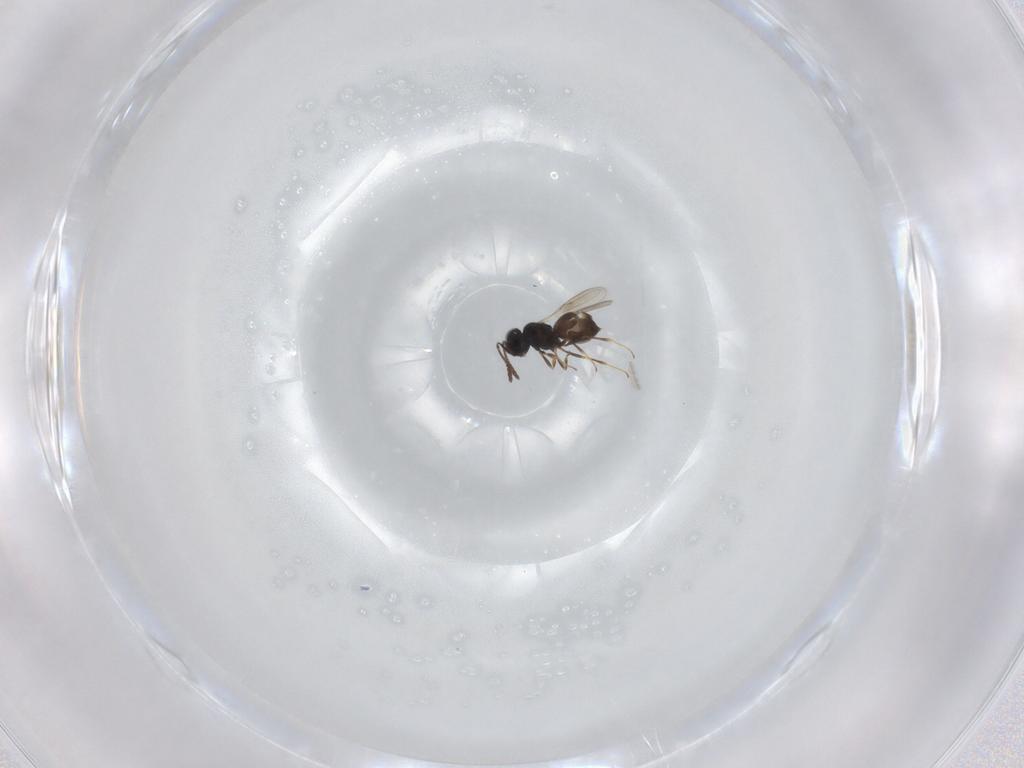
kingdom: Animalia
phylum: Arthropoda
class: Insecta
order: Hymenoptera
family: Scelionidae
